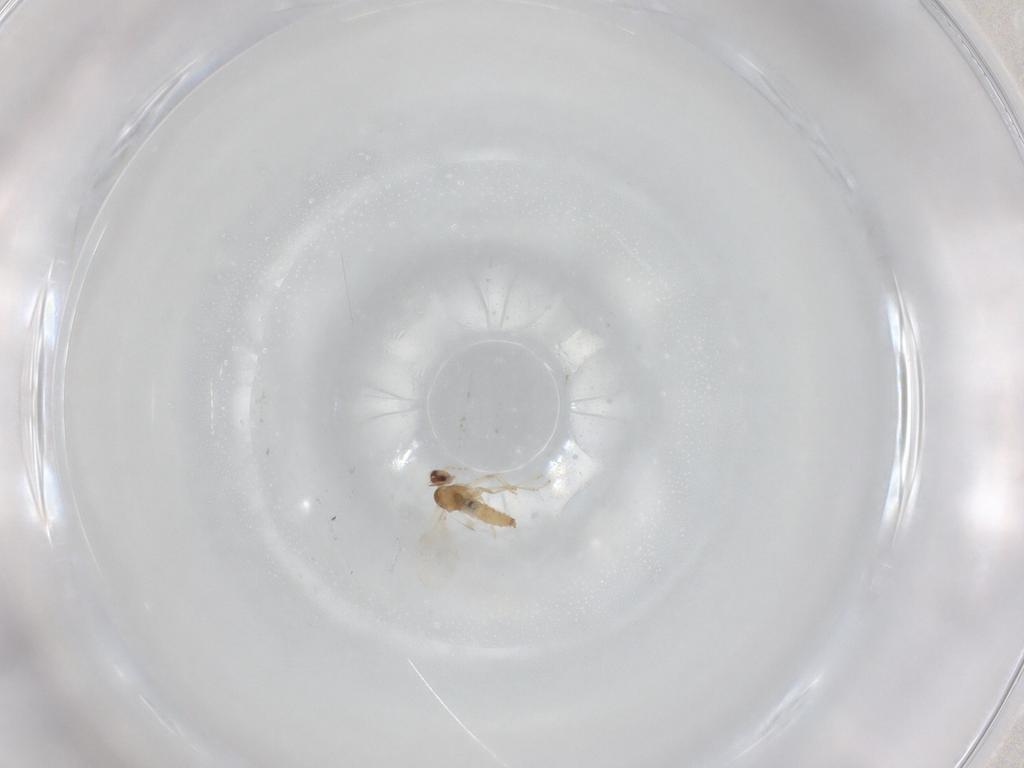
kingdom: Animalia
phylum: Arthropoda
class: Insecta
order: Diptera
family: Cecidomyiidae
